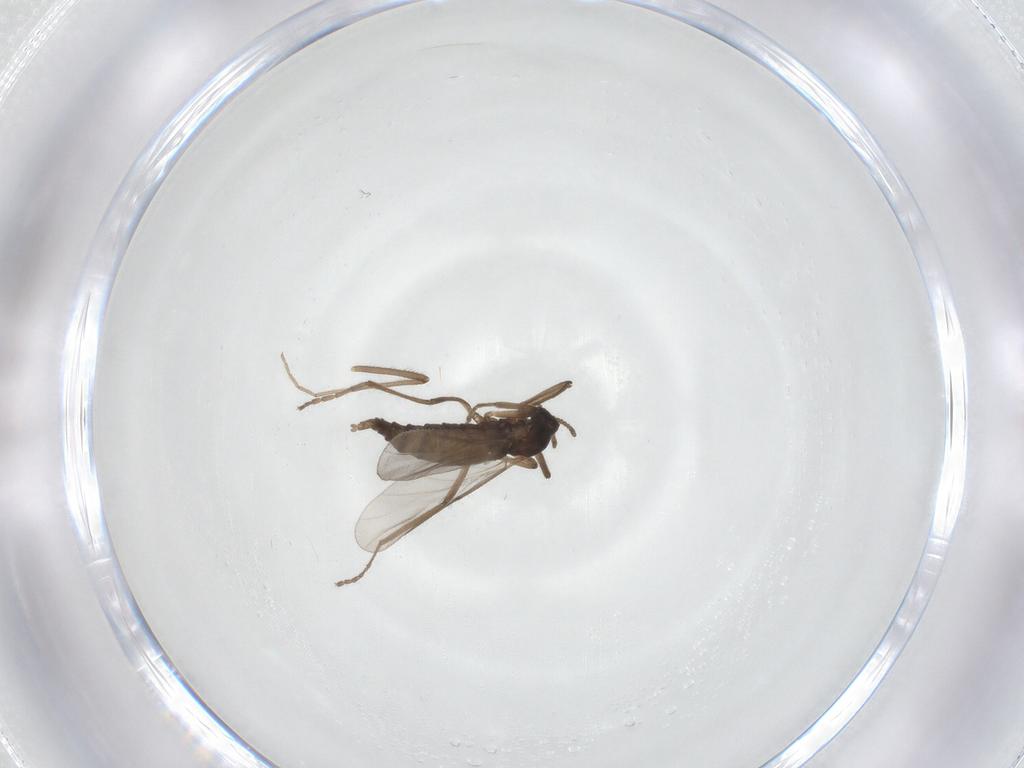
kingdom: Animalia
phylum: Arthropoda
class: Insecta
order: Diptera
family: Cecidomyiidae
